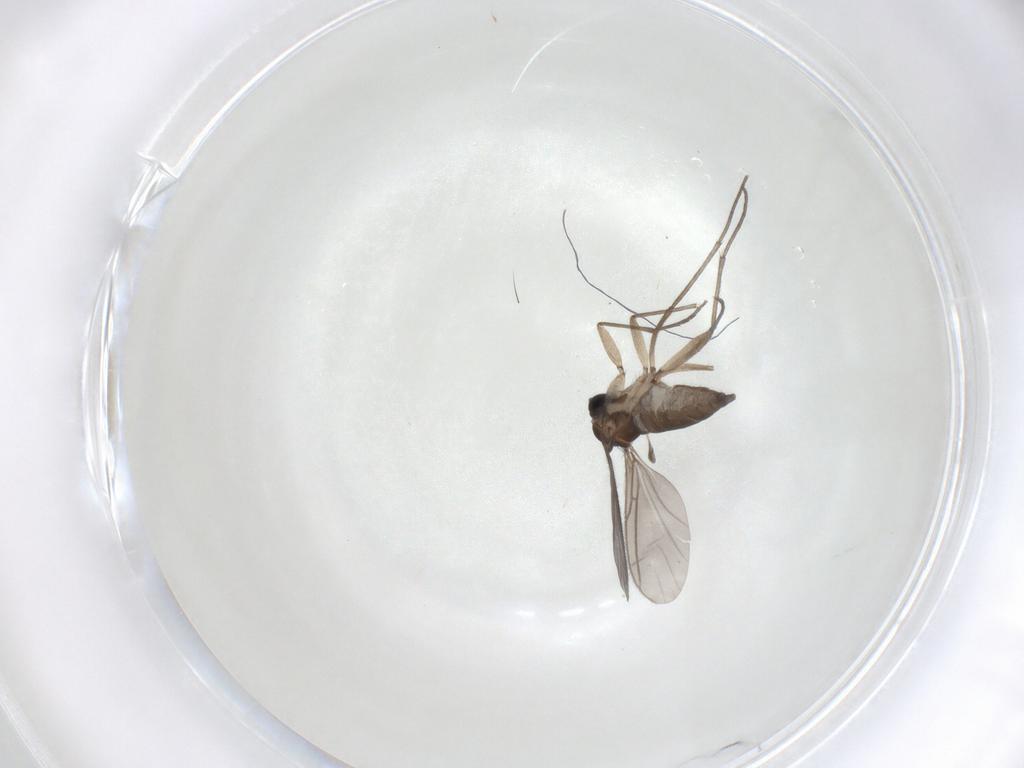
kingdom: Animalia
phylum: Arthropoda
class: Insecta
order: Diptera
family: Sciaridae
